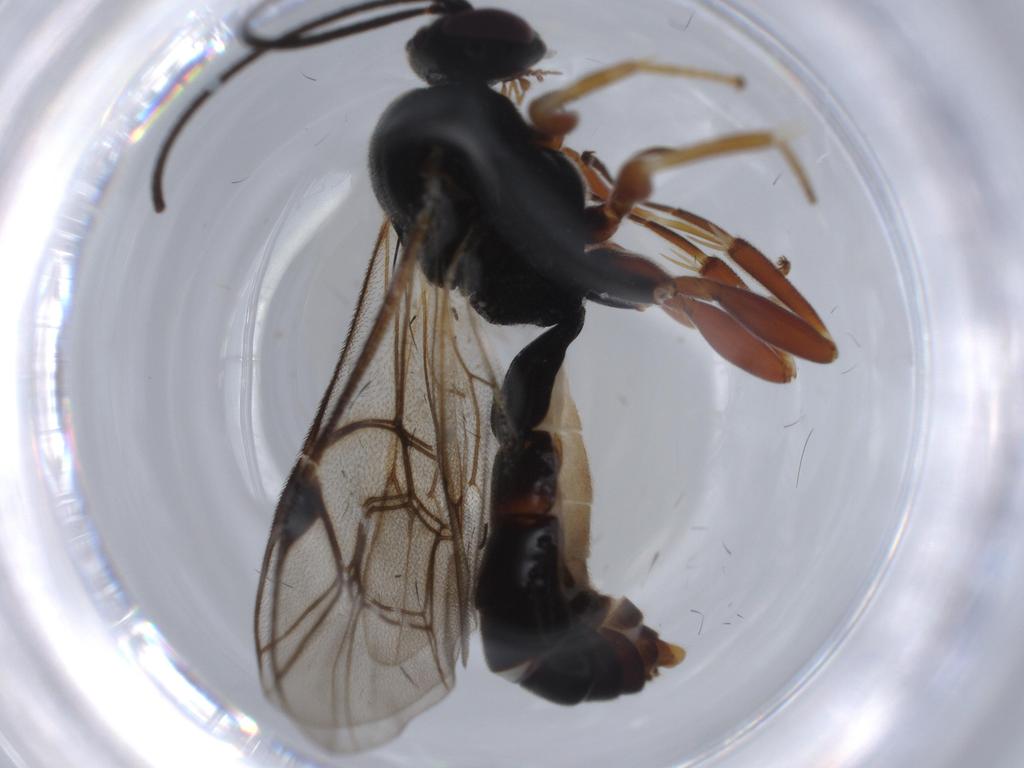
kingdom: Animalia
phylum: Arthropoda
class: Insecta
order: Hymenoptera
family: Ichneumonidae
